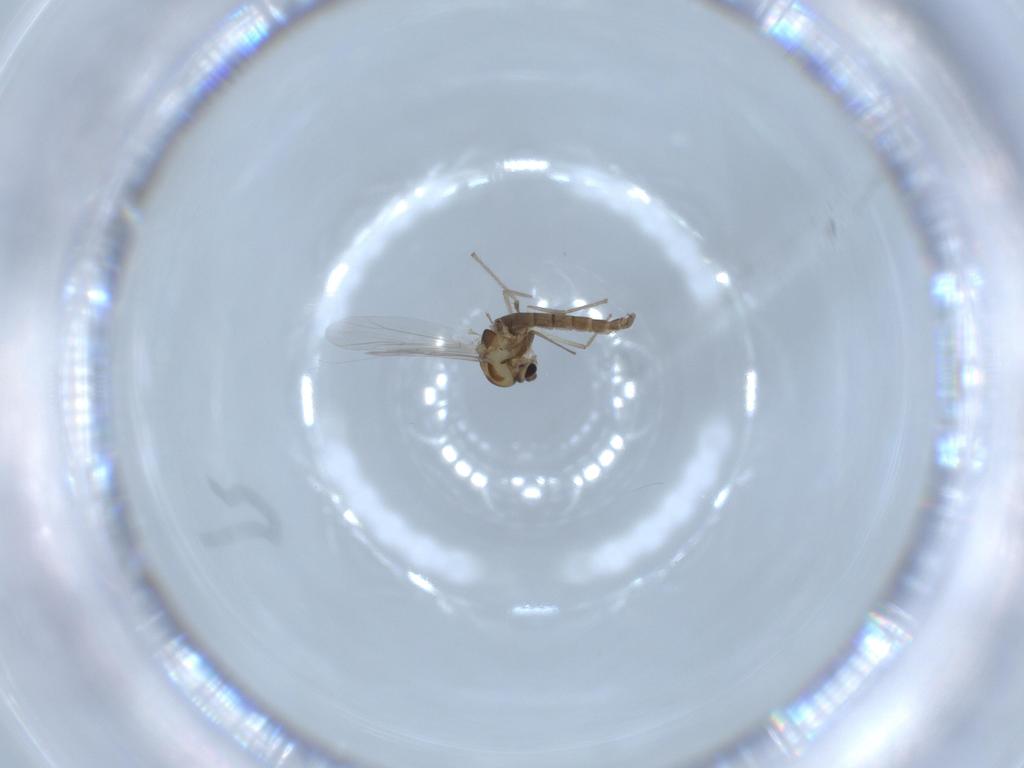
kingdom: Animalia
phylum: Arthropoda
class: Insecta
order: Diptera
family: Chironomidae
